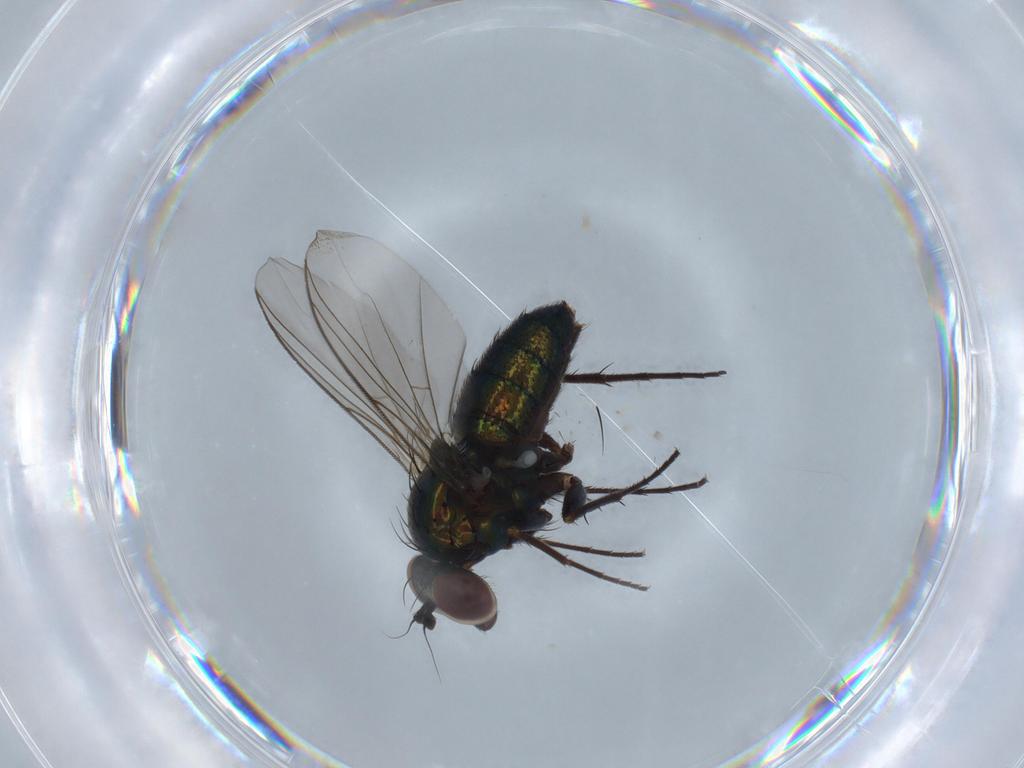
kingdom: Animalia
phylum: Arthropoda
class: Insecta
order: Diptera
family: Dolichopodidae
